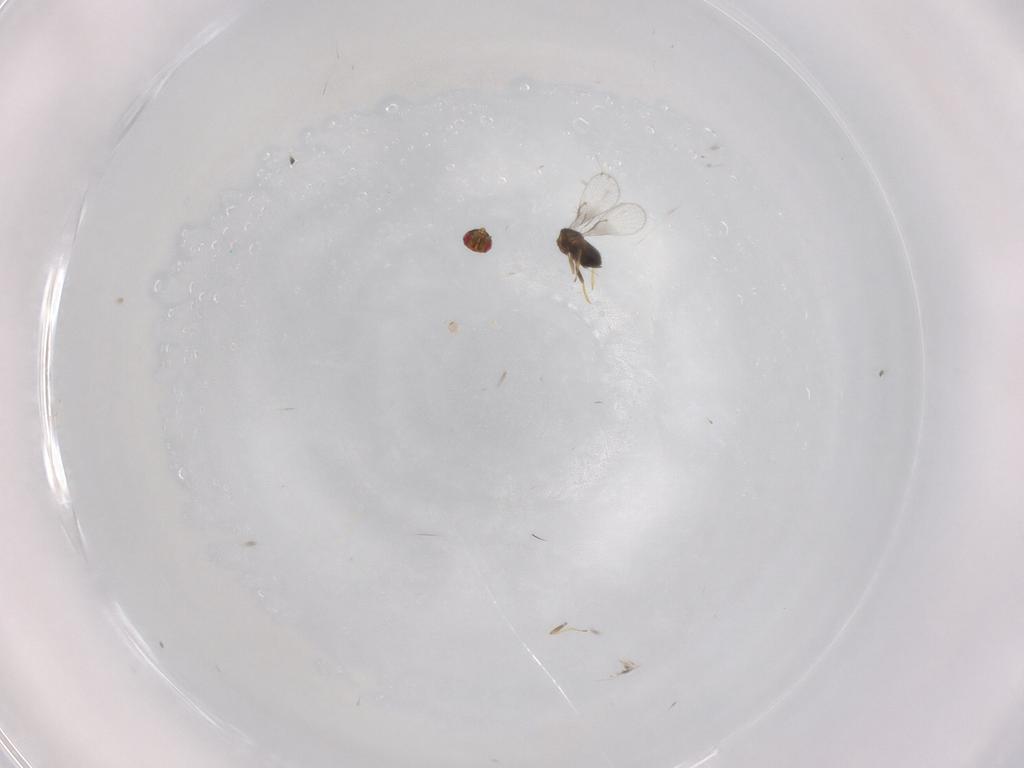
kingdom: Animalia
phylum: Arthropoda
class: Insecta
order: Hymenoptera
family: Trichogrammatidae
